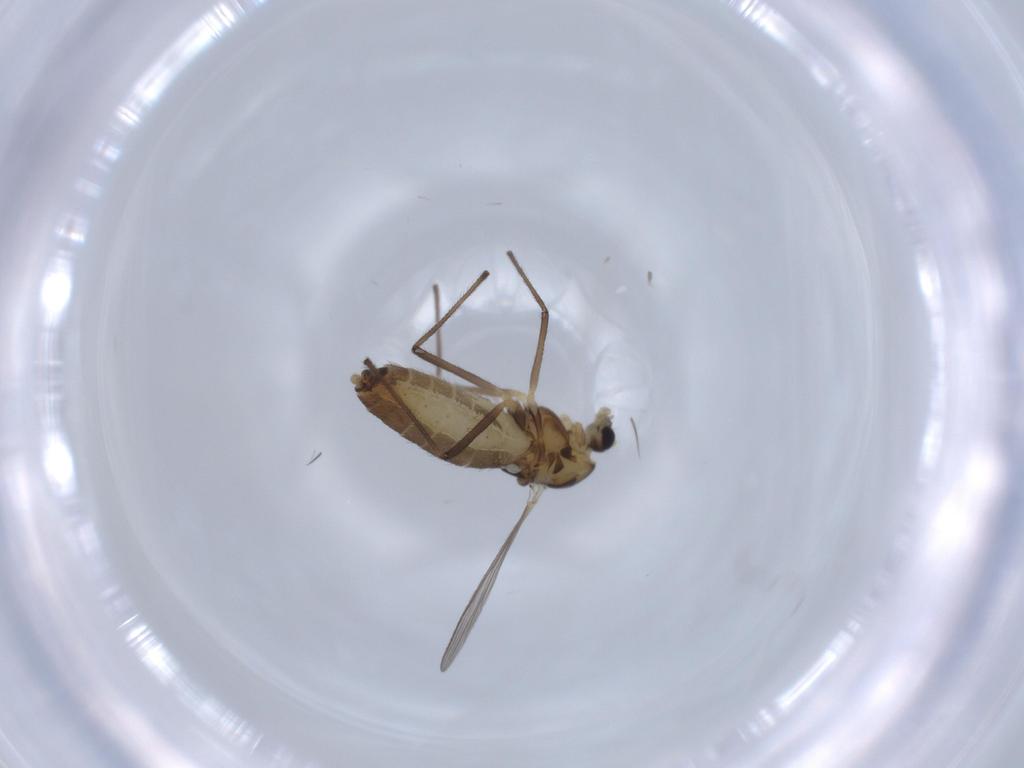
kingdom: Animalia
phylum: Arthropoda
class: Insecta
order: Diptera
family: Chironomidae
